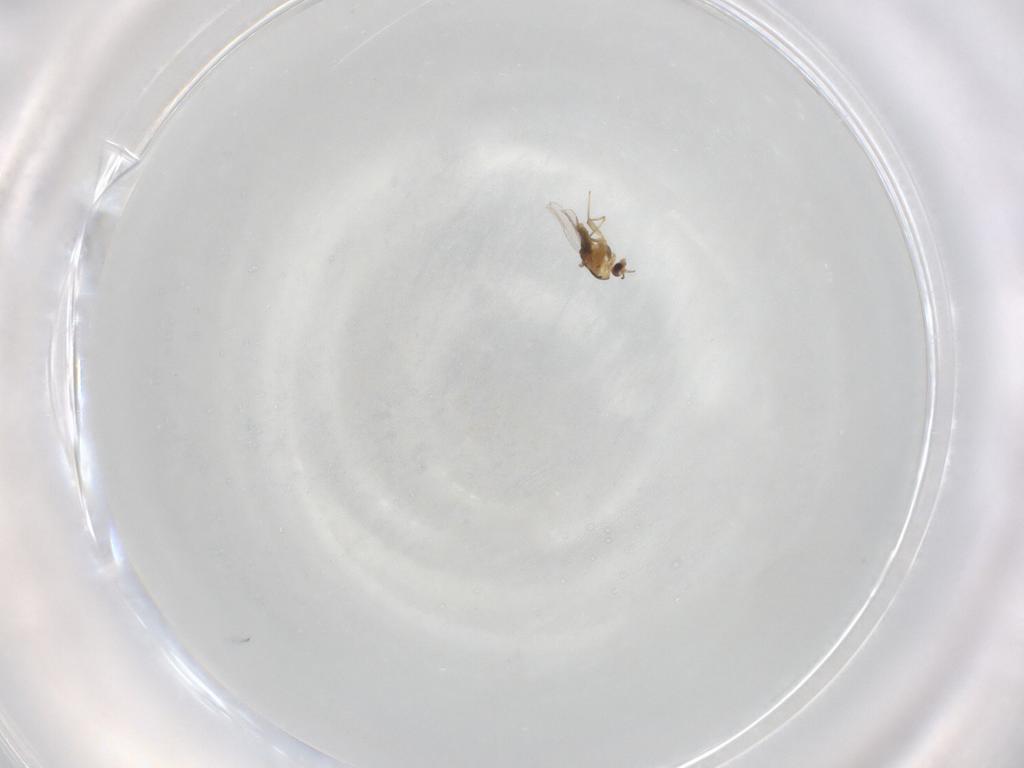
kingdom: Animalia
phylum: Arthropoda
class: Insecta
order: Diptera
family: Chironomidae
